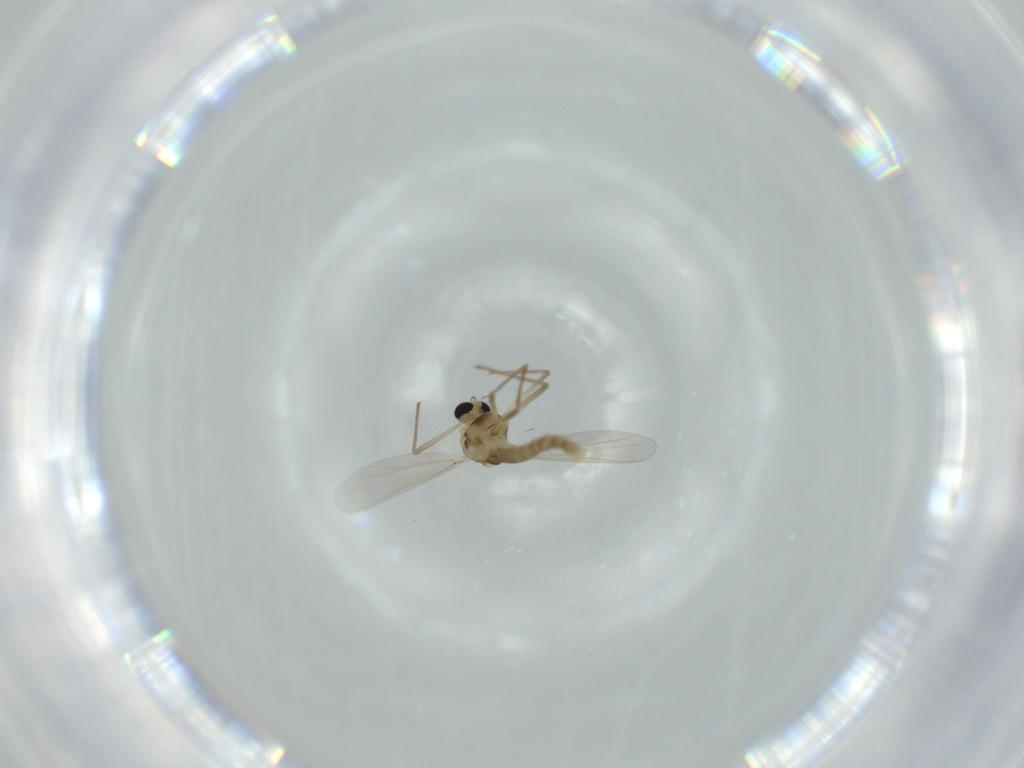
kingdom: Animalia
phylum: Arthropoda
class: Insecta
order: Diptera
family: Chironomidae
